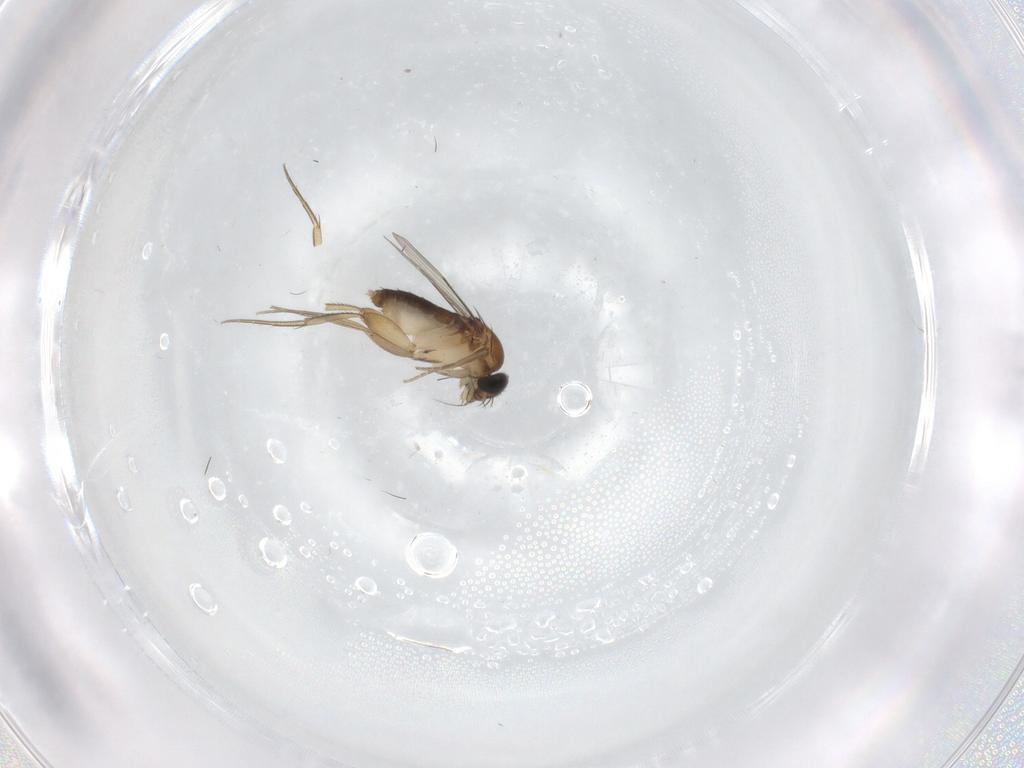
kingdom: Animalia
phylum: Arthropoda
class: Insecta
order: Diptera
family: Phoridae
